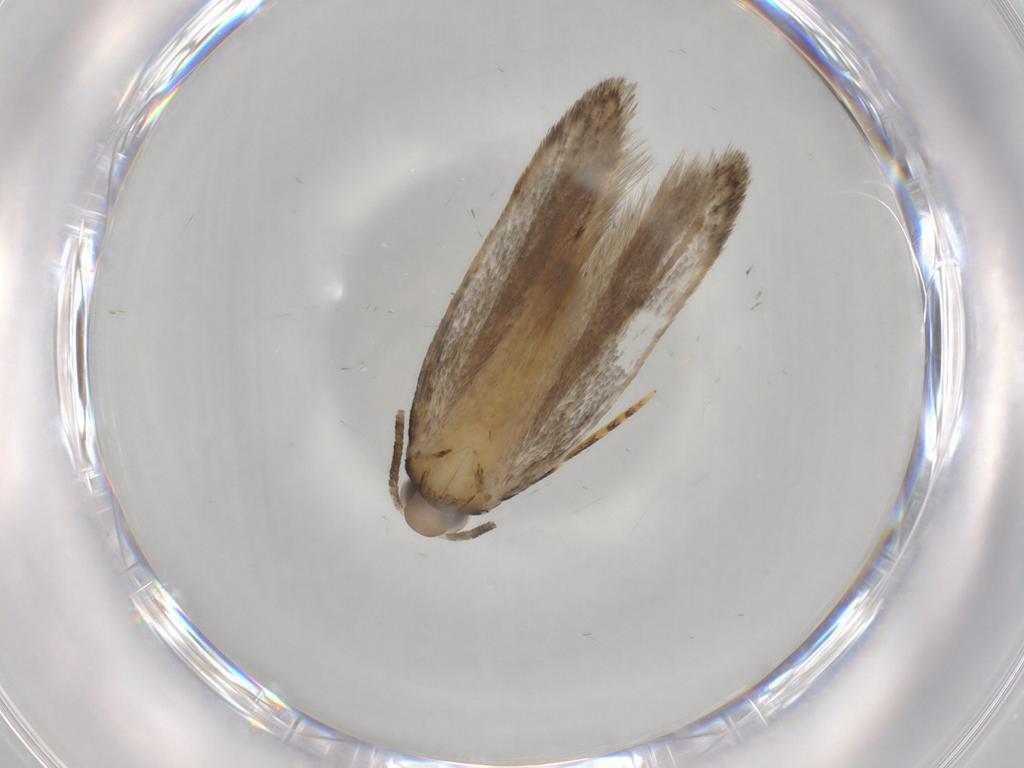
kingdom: Animalia
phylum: Arthropoda
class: Insecta
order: Lepidoptera
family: Autostichidae
